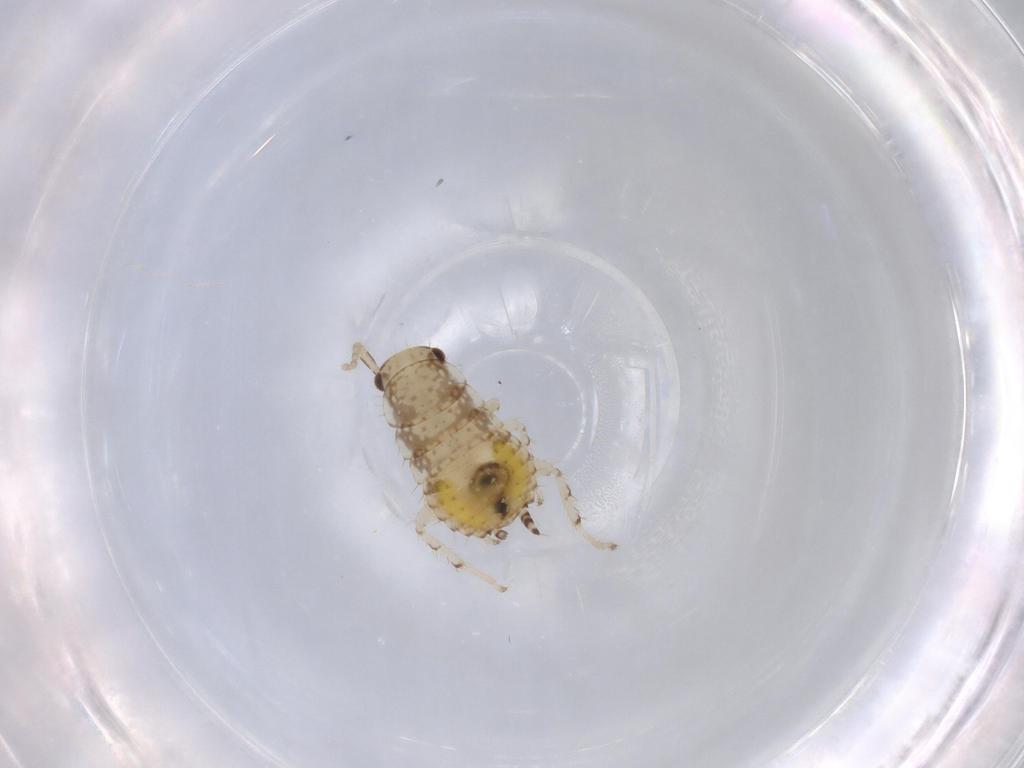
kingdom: Animalia
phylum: Arthropoda
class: Insecta
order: Blattodea
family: Ectobiidae
